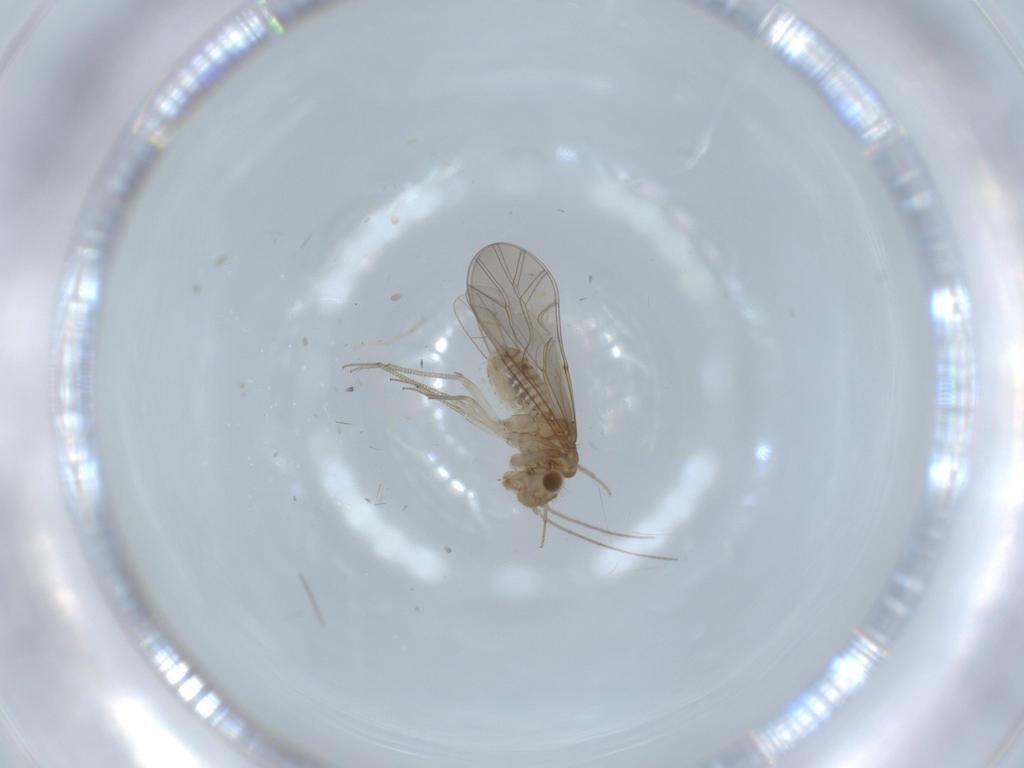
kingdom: Animalia
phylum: Arthropoda
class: Insecta
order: Psocodea
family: Lachesillidae
